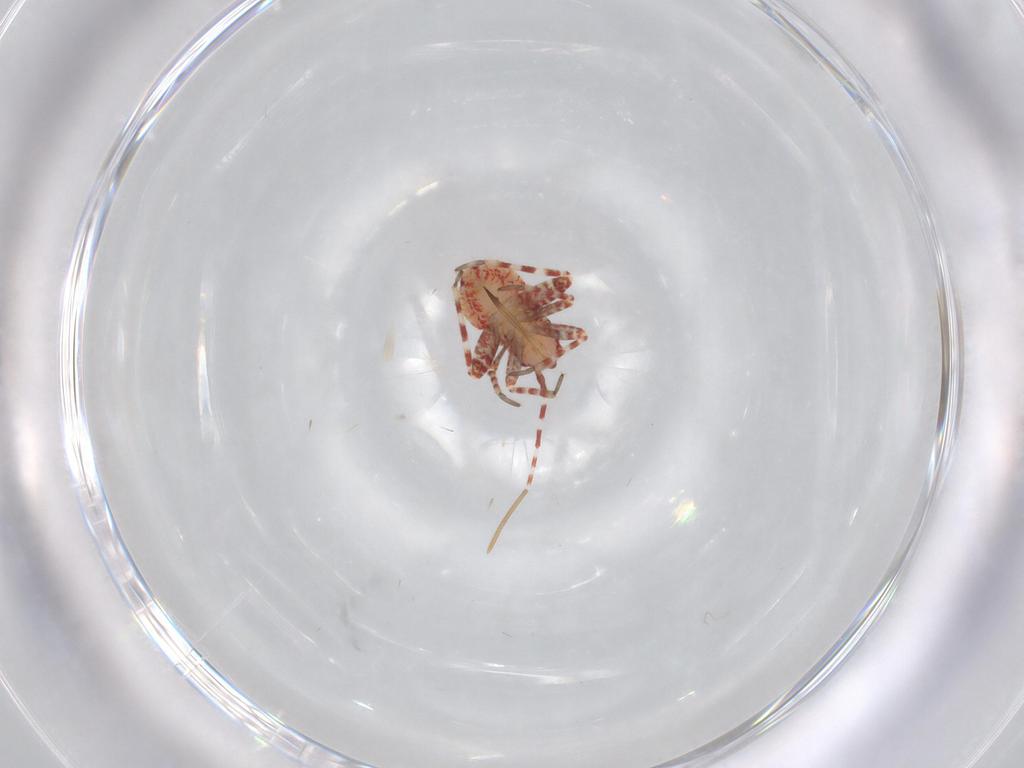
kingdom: Animalia
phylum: Arthropoda
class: Insecta
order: Hemiptera
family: Miridae
